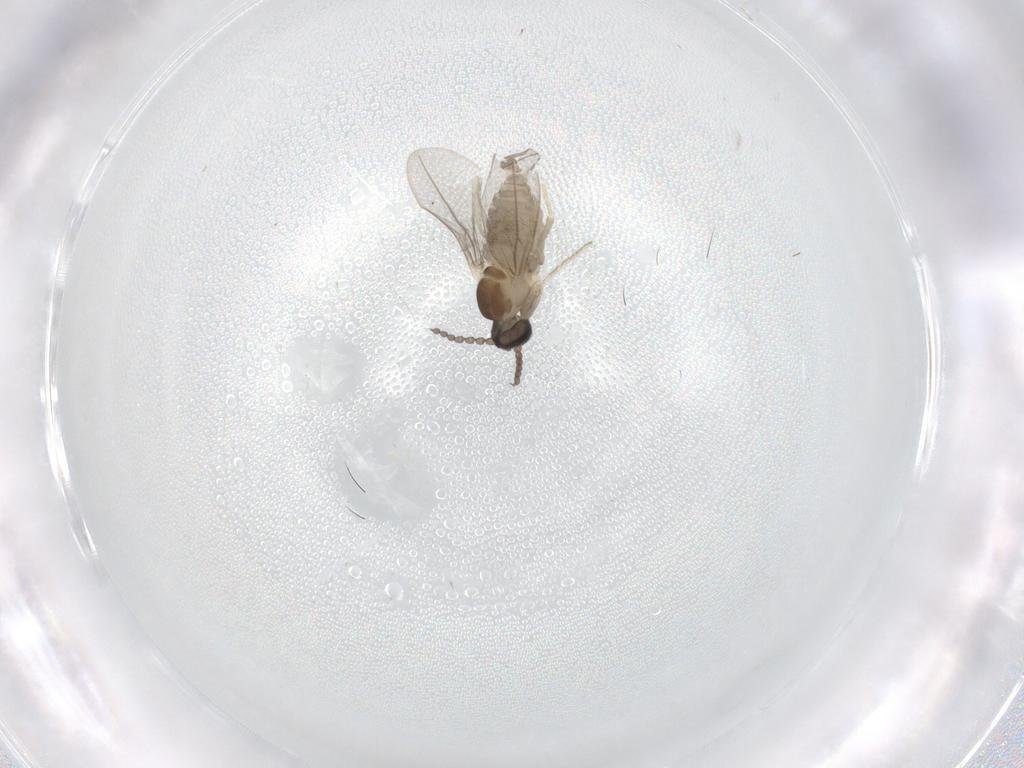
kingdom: Animalia
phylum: Arthropoda
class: Insecta
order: Diptera
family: Cecidomyiidae
